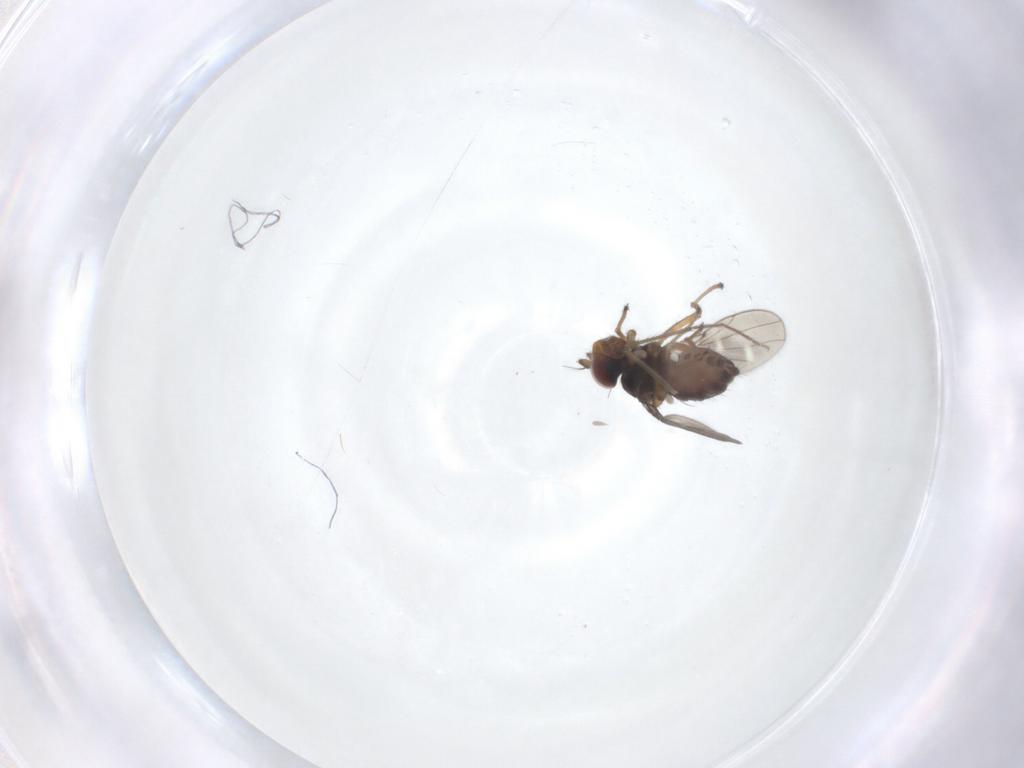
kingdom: Animalia
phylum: Arthropoda
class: Insecta
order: Diptera
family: Ephydridae
